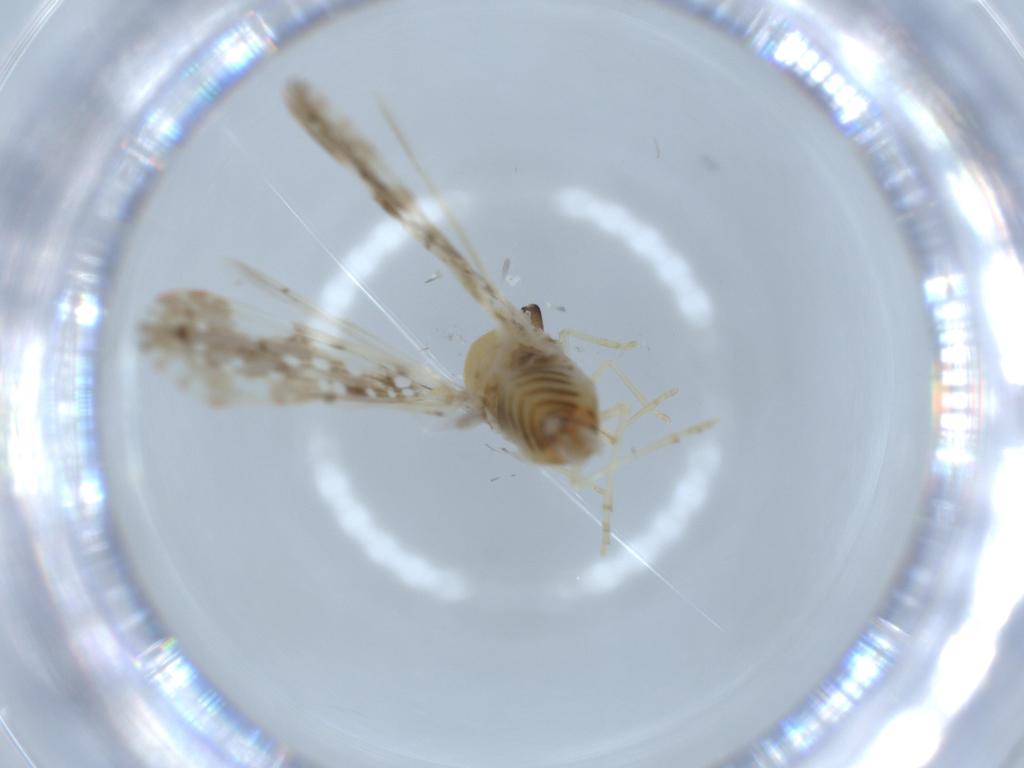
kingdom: Animalia
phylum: Arthropoda
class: Insecta
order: Hemiptera
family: Derbidae
